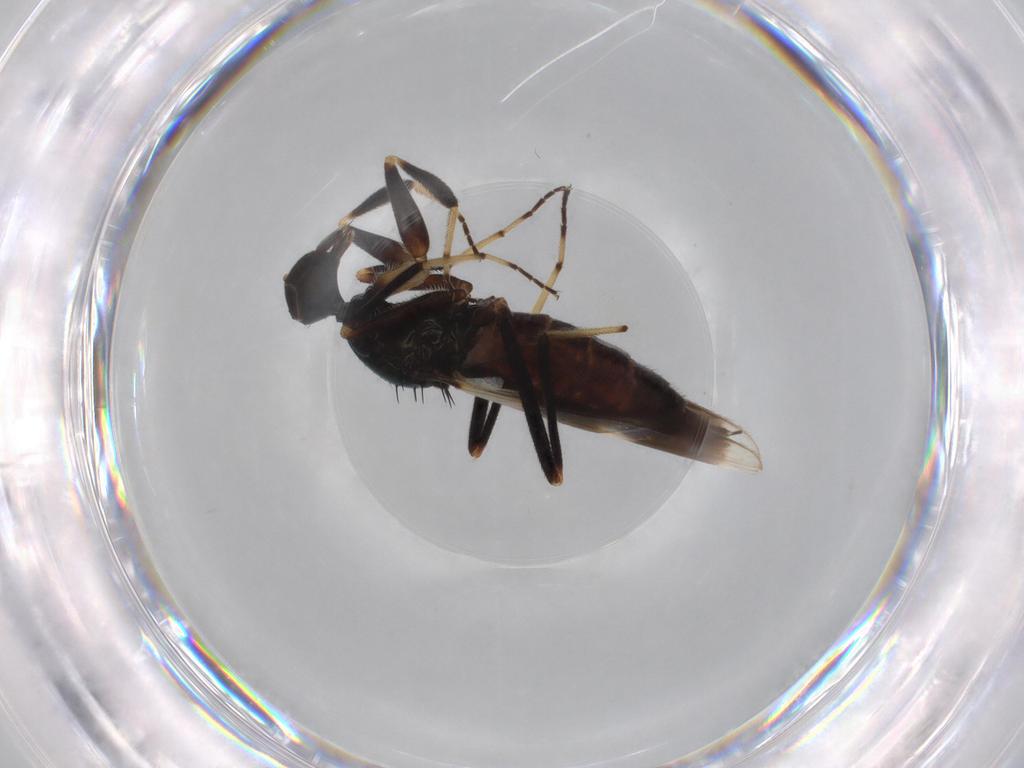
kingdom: Animalia
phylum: Arthropoda
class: Insecta
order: Diptera
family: Hybotidae
